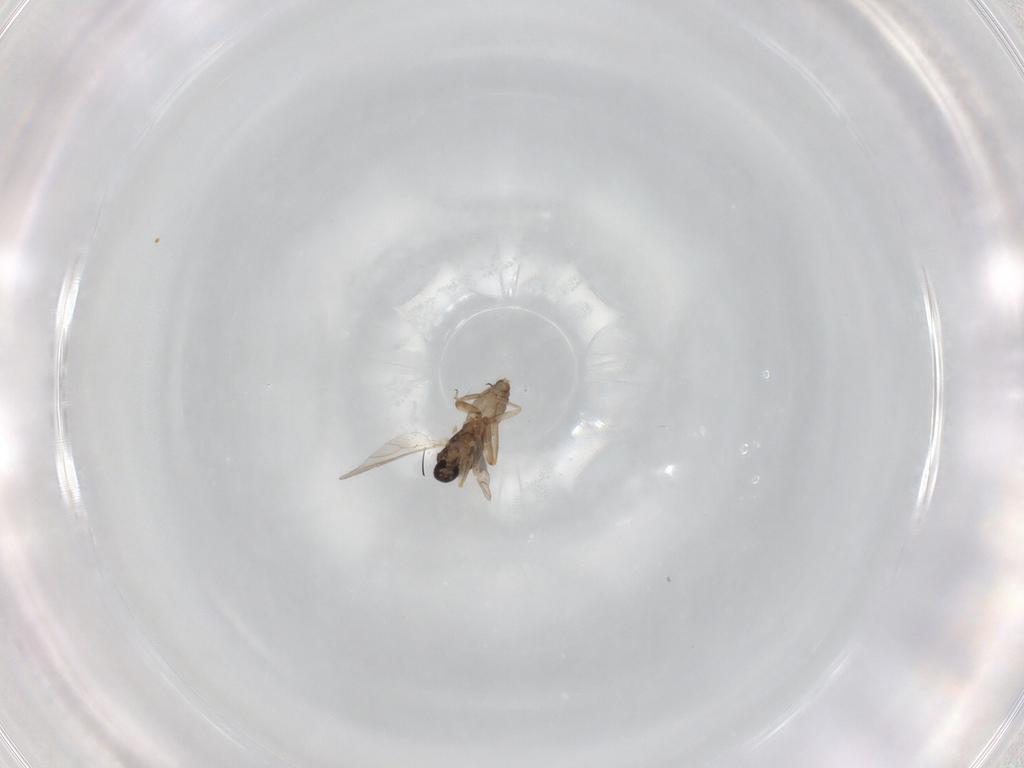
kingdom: Animalia
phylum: Arthropoda
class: Insecta
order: Diptera
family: Ceratopogonidae
